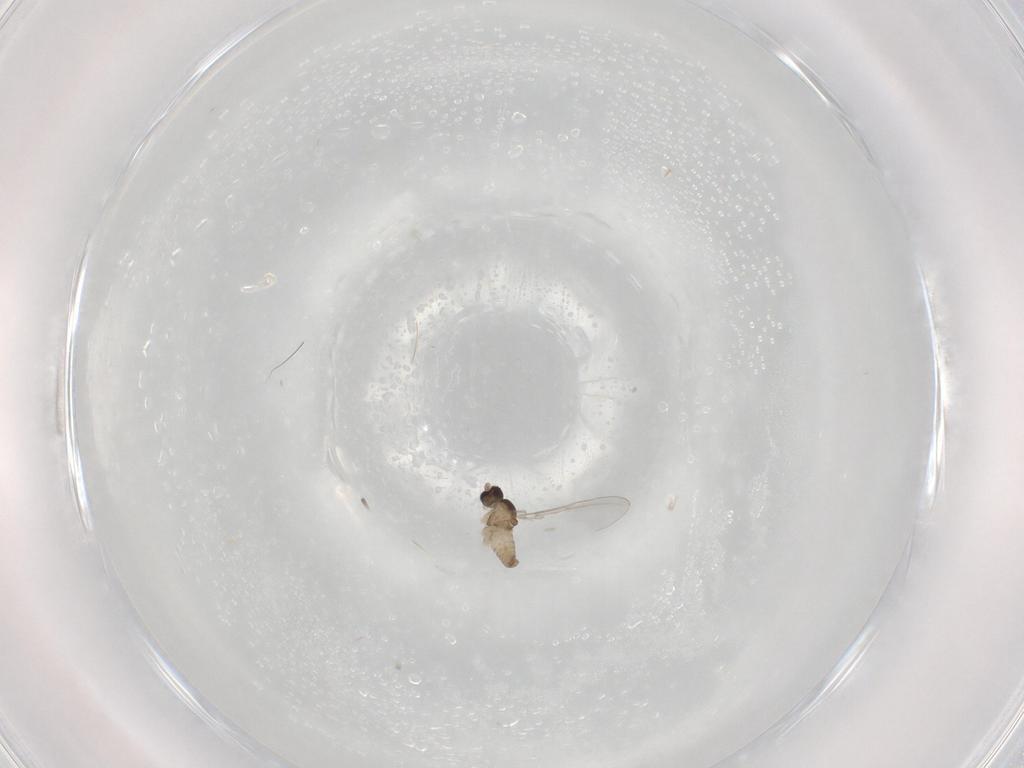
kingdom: Animalia
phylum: Arthropoda
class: Insecta
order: Diptera
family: Cecidomyiidae
